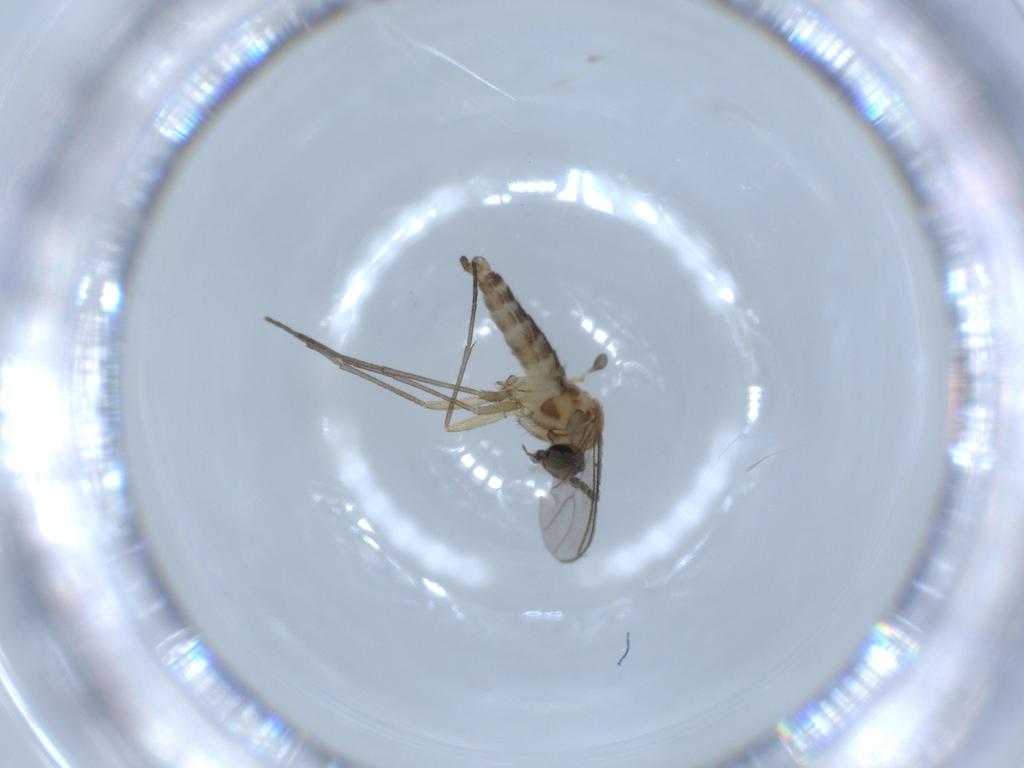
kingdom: Animalia
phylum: Arthropoda
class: Insecta
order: Diptera
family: Sciaridae
